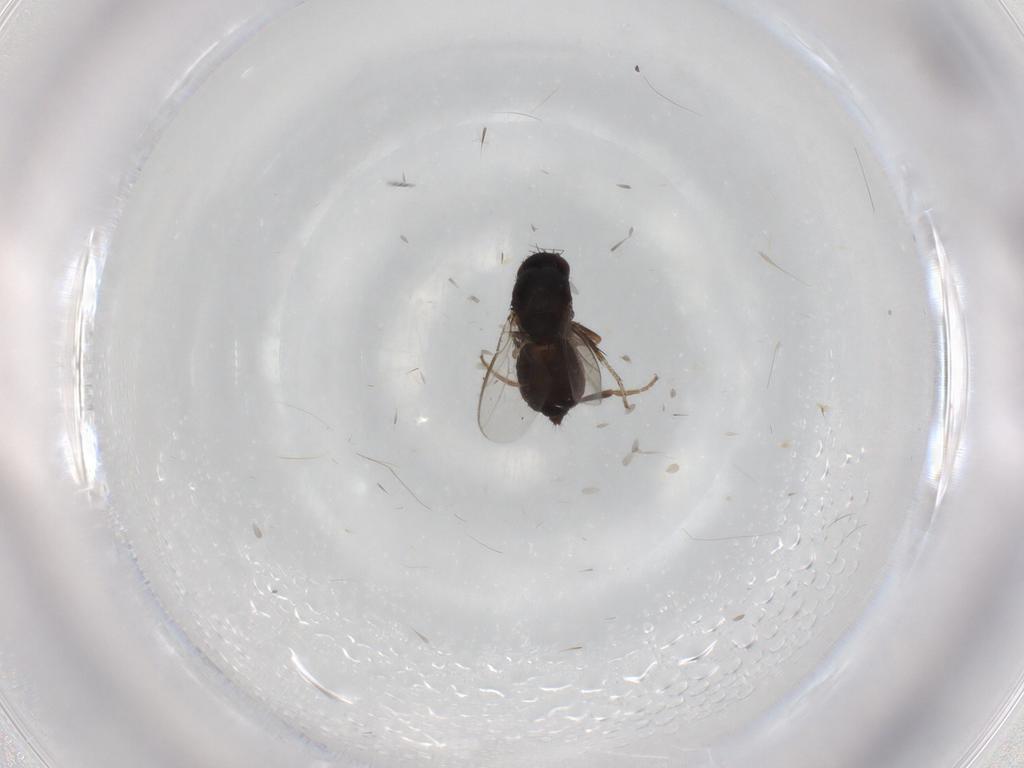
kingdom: Animalia
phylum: Arthropoda
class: Insecta
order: Diptera
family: Sphaeroceridae
